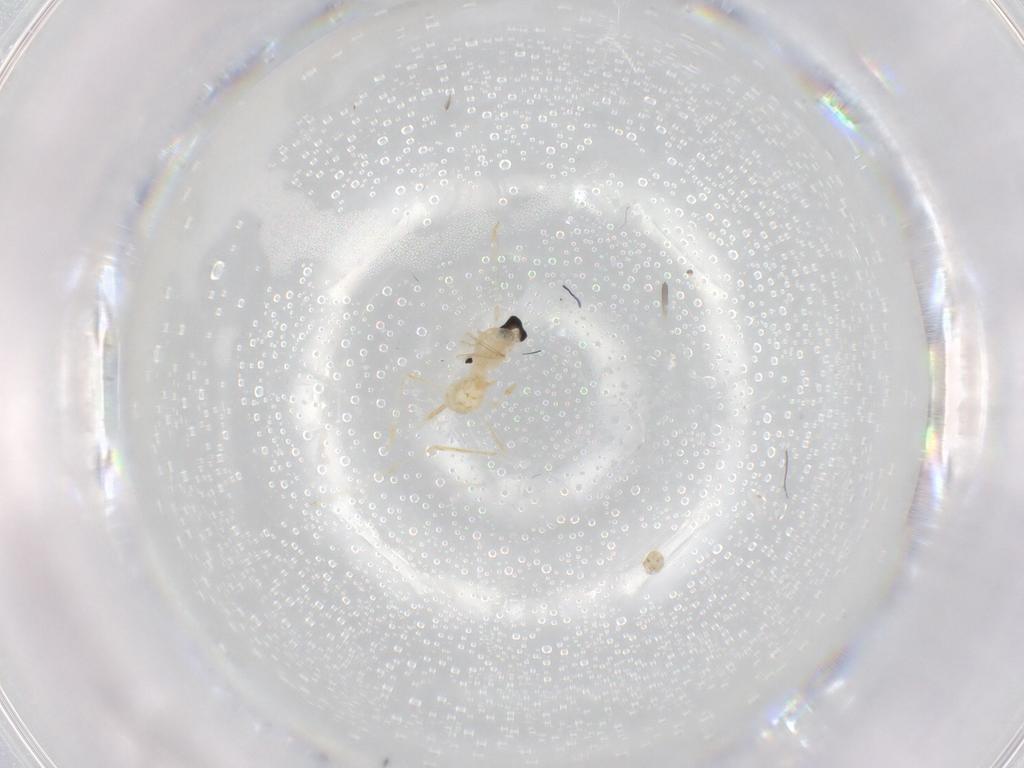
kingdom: Animalia
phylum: Arthropoda
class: Insecta
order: Diptera
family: Cecidomyiidae
